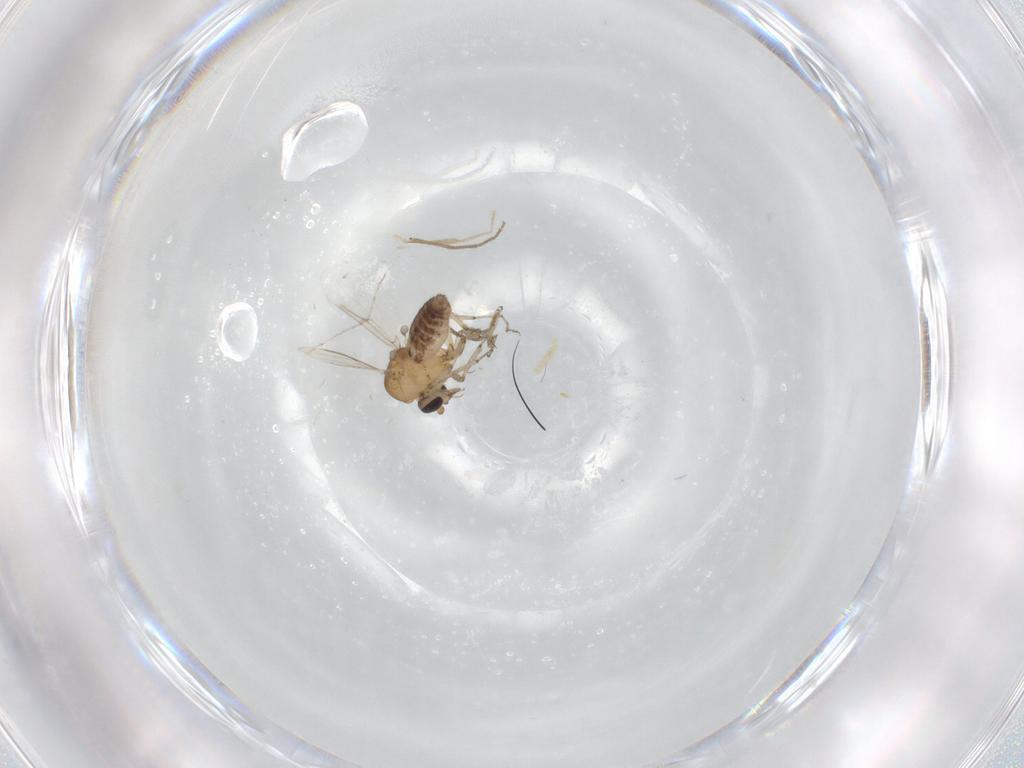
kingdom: Animalia
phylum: Arthropoda
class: Insecta
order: Diptera
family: Ceratopogonidae
